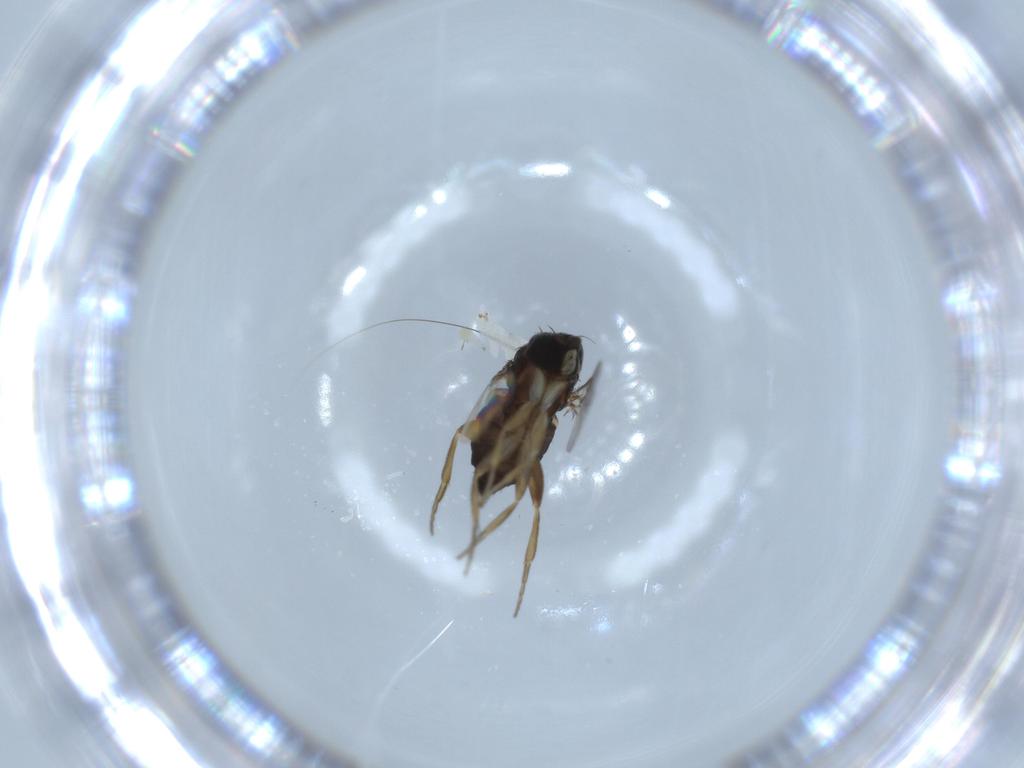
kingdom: Animalia
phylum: Arthropoda
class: Insecta
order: Diptera
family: Phoridae
